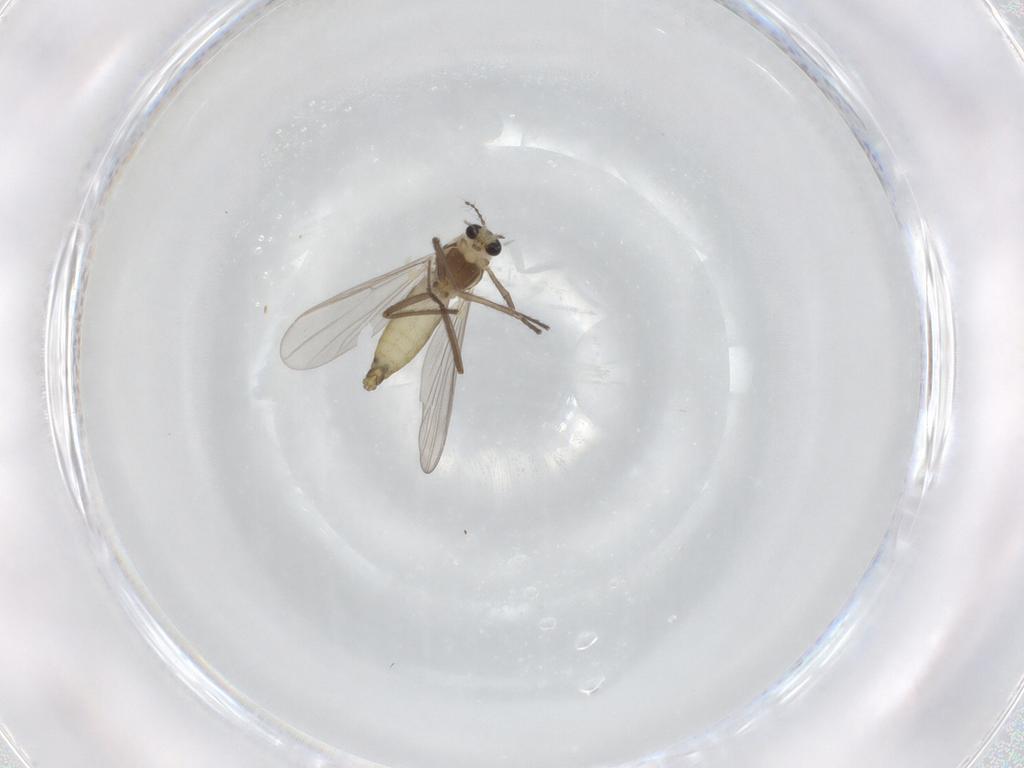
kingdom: Animalia
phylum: Arthropoda
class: Insecta
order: Diptera
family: Chironomidae
